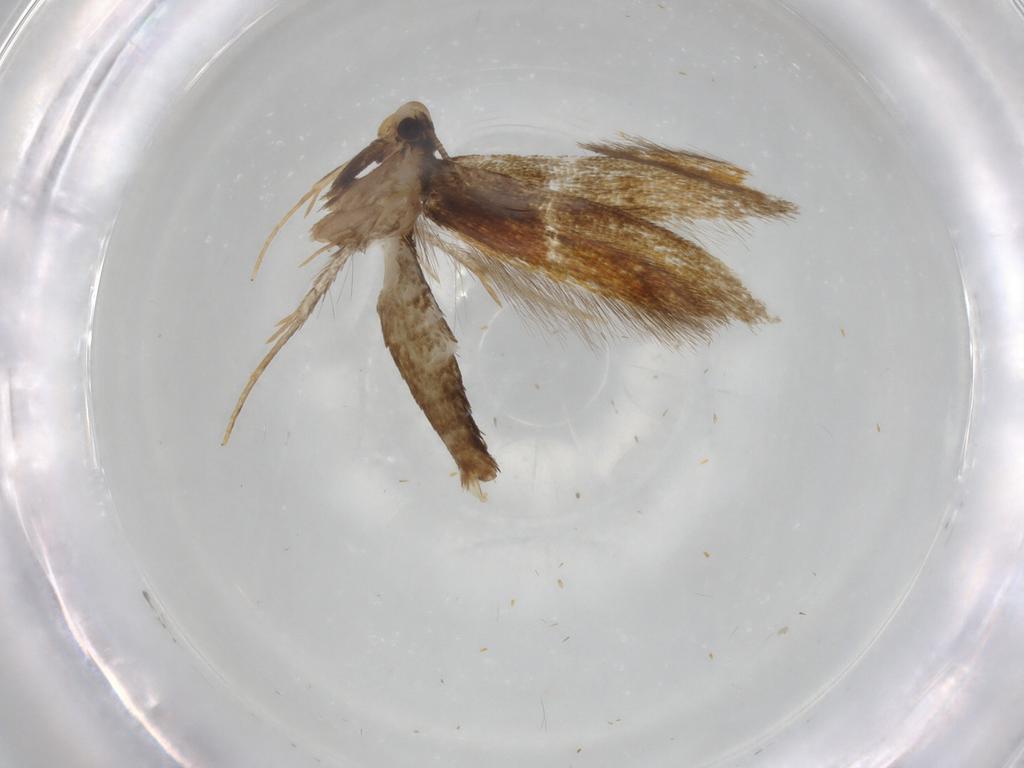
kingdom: Animalia
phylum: Arthropoda
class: Insecta
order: Lepidoptera
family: Tineidae
